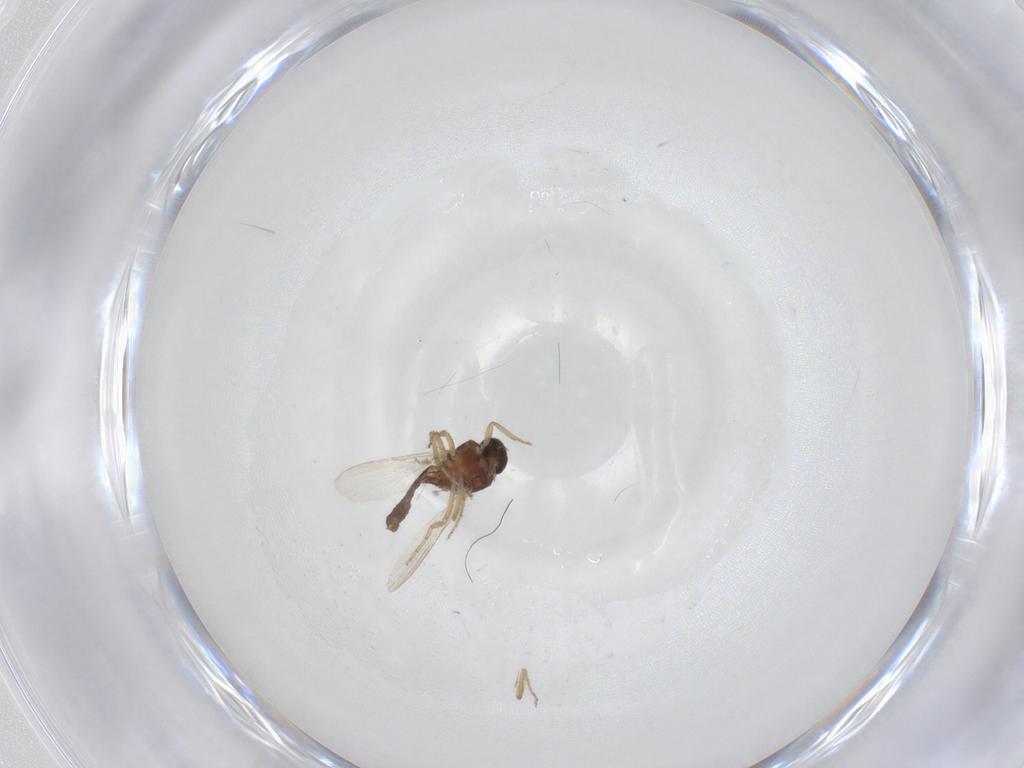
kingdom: Animalia
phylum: Arthropoda
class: Insecta
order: Diptera
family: Ceratopogonidae
